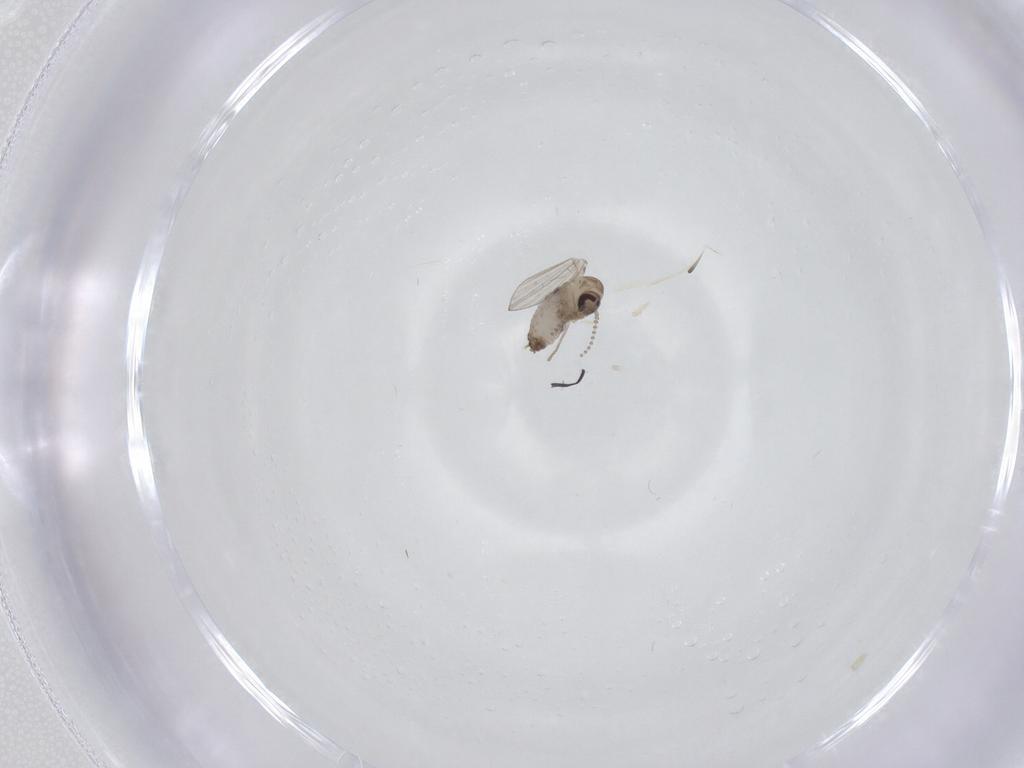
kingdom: Animalia
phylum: Arthropoda
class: Insecta
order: Diptera
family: Psychodidae
